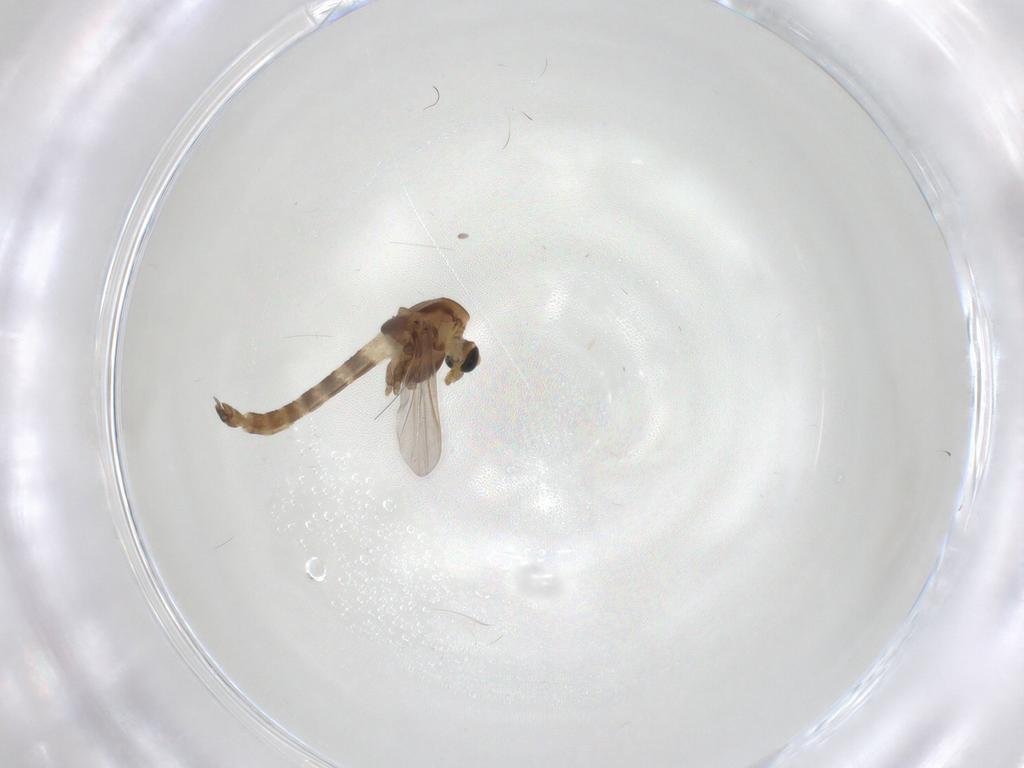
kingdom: Animalia
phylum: Arthropoda
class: Insecta
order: Diptera
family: Chironomidae
